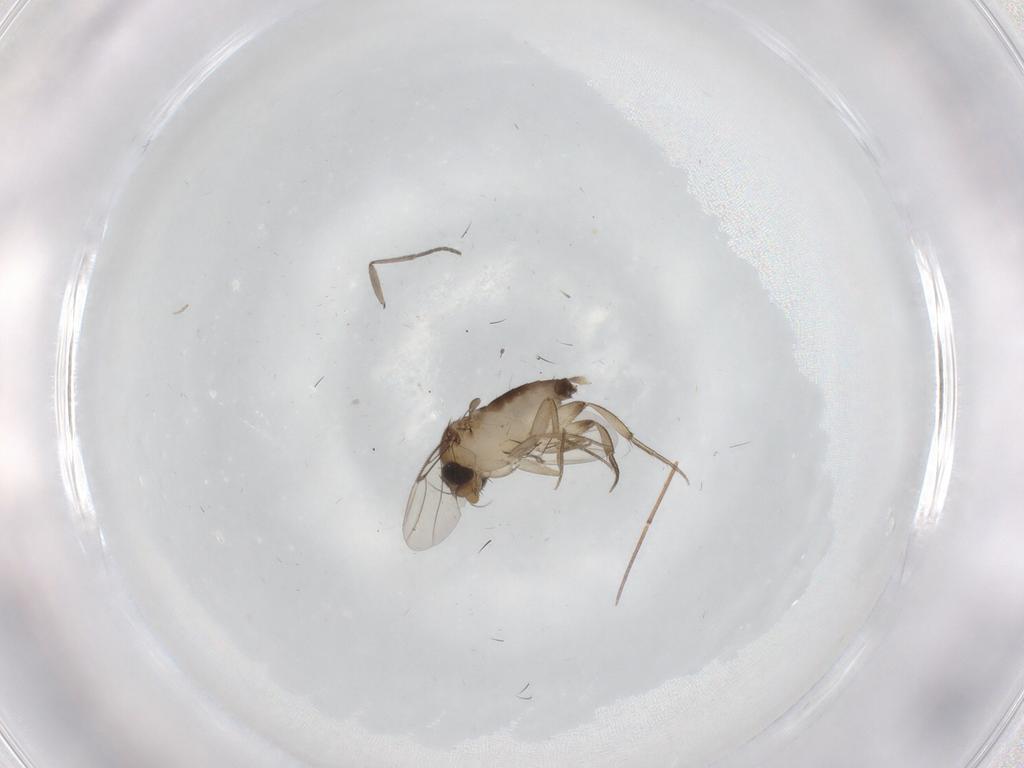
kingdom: Animalia
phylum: Arthropoda
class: Insecta
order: Diptera
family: Phoridae
